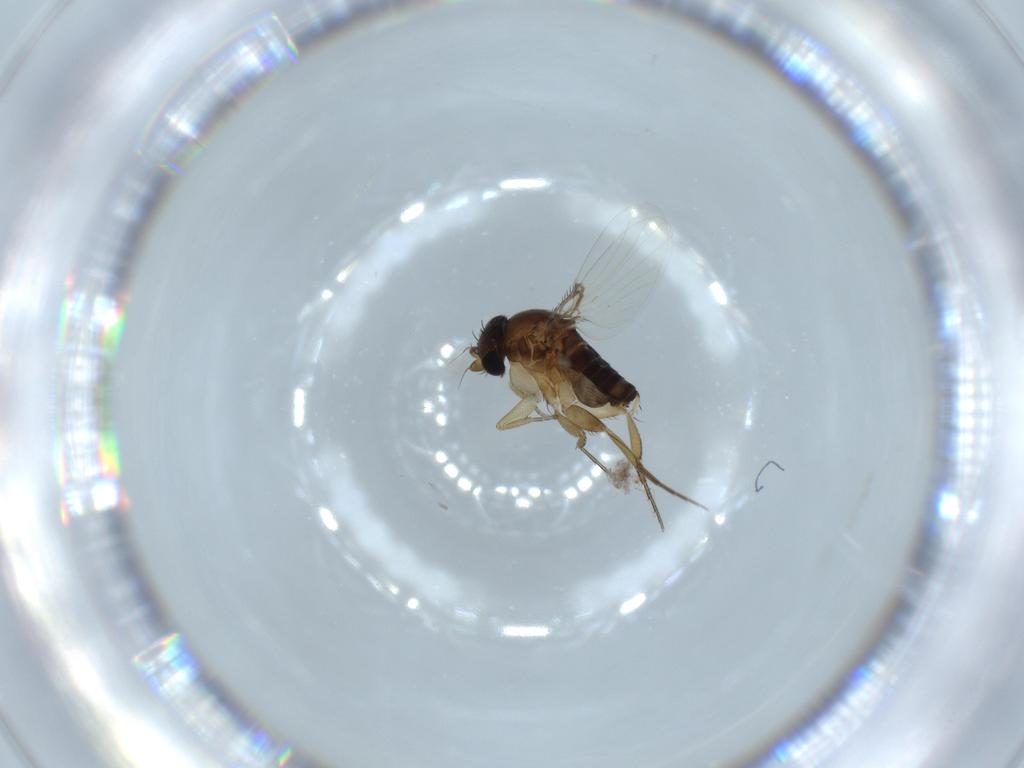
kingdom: Animalia
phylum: Arthropoda
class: Insecta
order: Diptera
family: Phoridae
